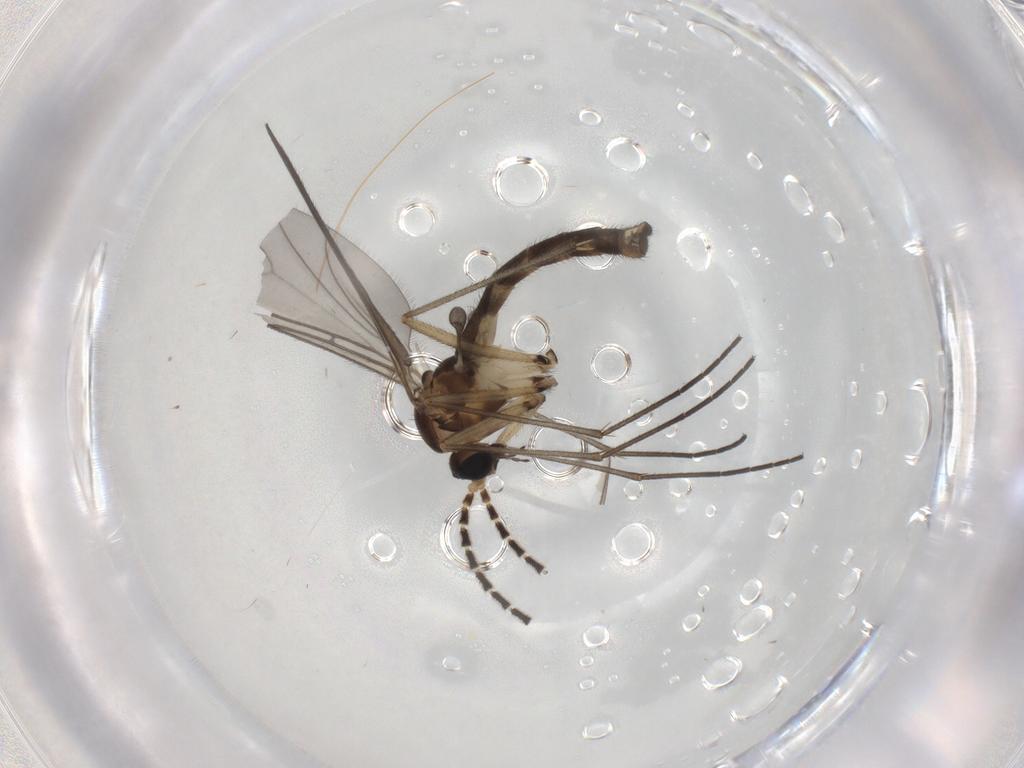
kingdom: Animalia
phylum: Arthropoda
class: Insecta
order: Diptera
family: Sciaridae
